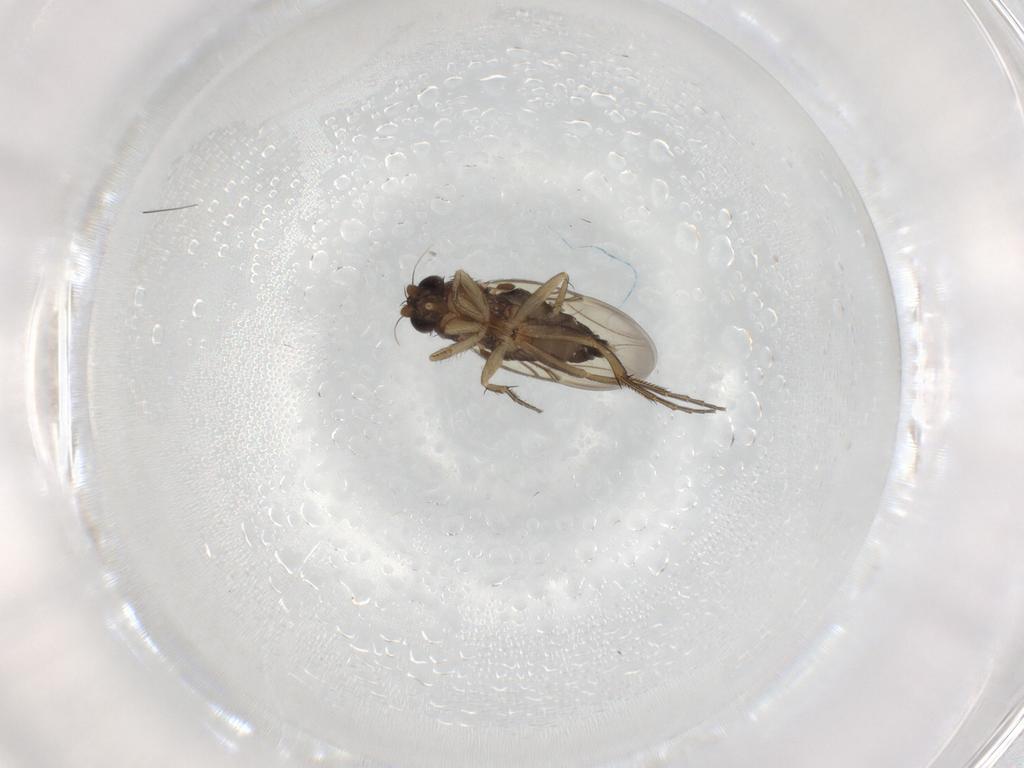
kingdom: Animalia
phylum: Arthropoda
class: Insecta
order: Diptera
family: Phoridae
